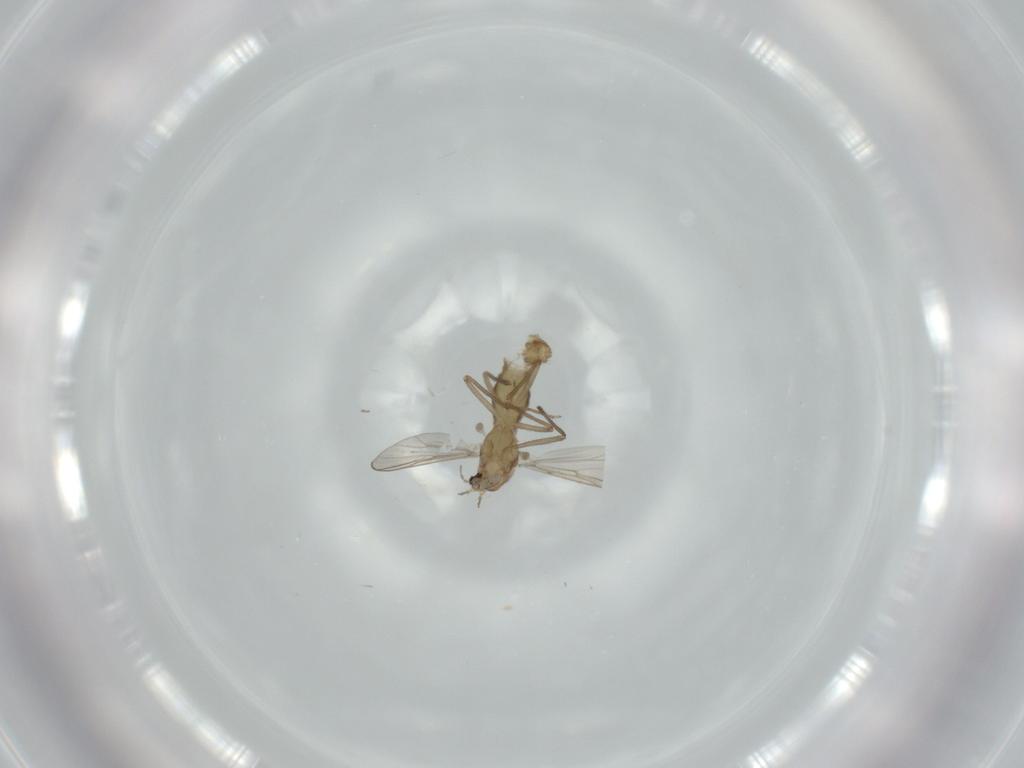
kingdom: Animalia
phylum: Arthropoda
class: Insecta
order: Diptera
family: Chironomidae
